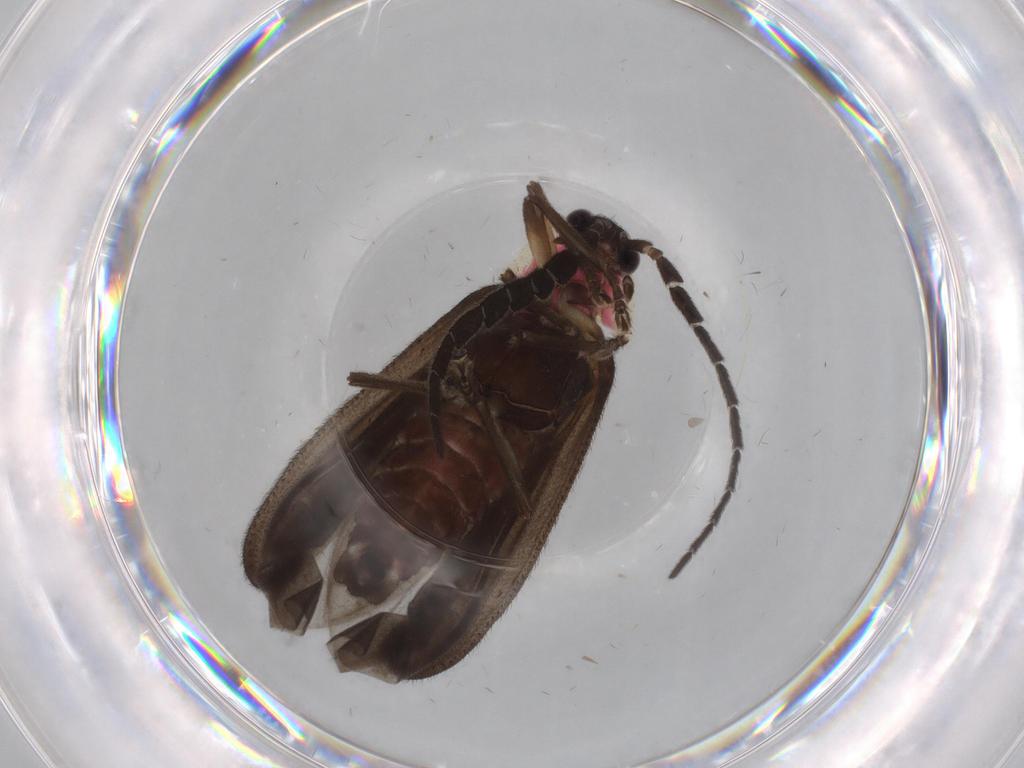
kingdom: Animalia
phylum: Arthropoda
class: Insecta
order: Coleoptera
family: Lampyridae
